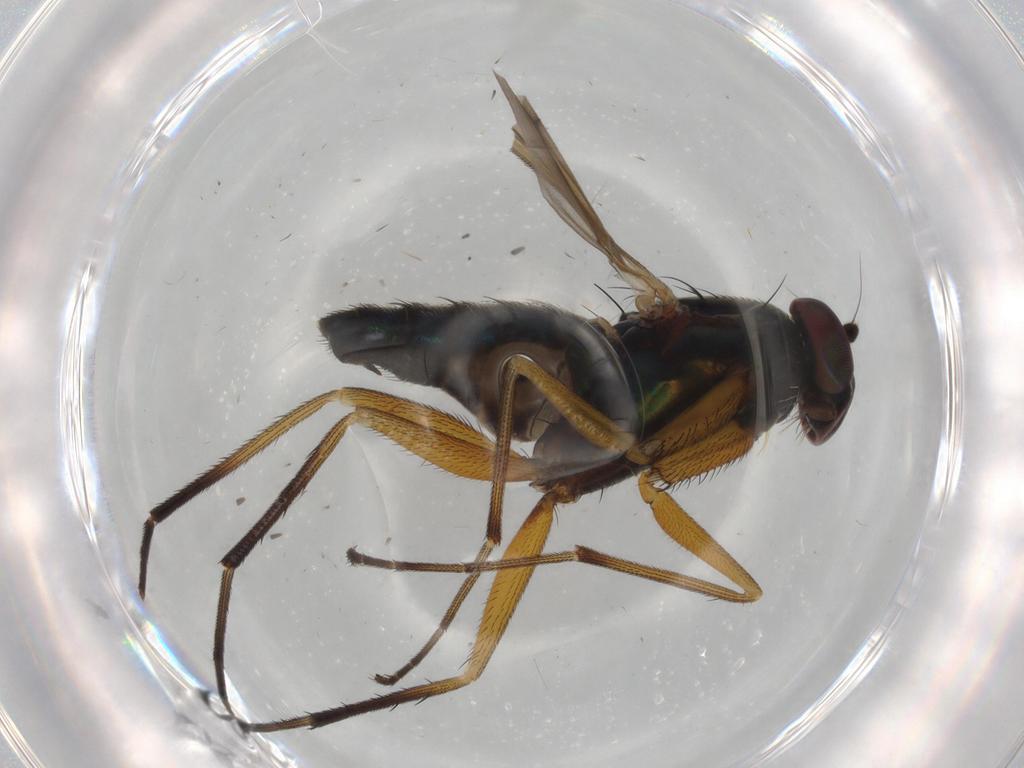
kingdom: Animalia
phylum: Arthropoda
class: Insecta
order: Diptera
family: Dolichopodidae
